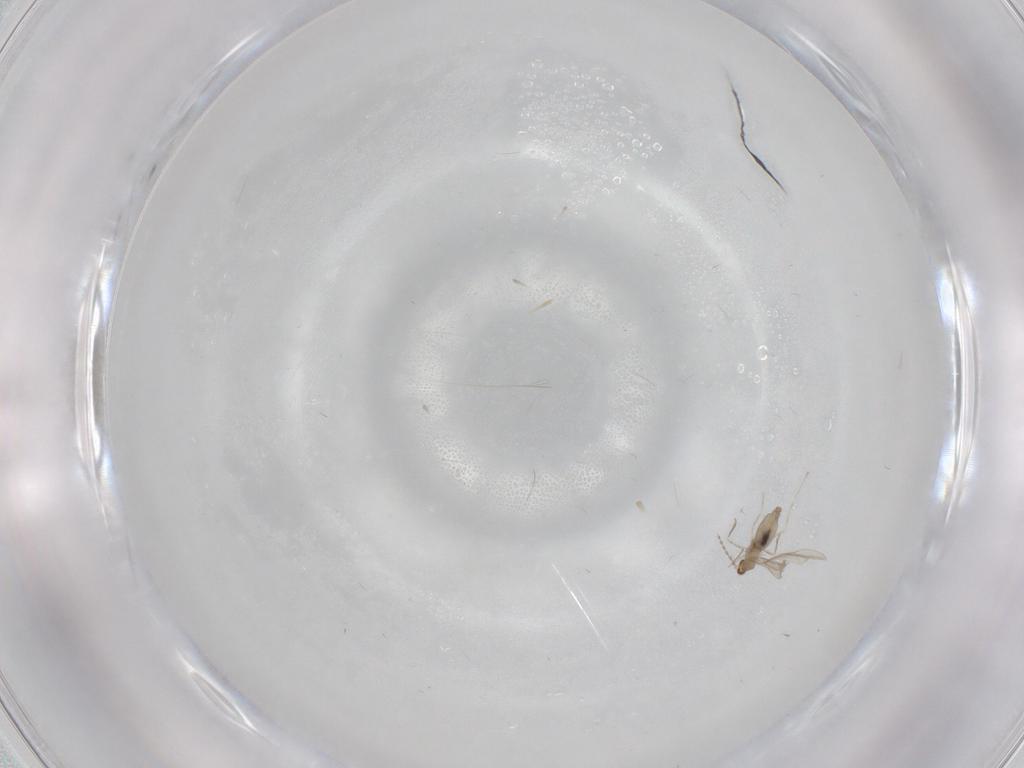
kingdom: Animalia
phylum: Arthropoda
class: Insecta
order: Diptera
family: Cecidomyiidae
